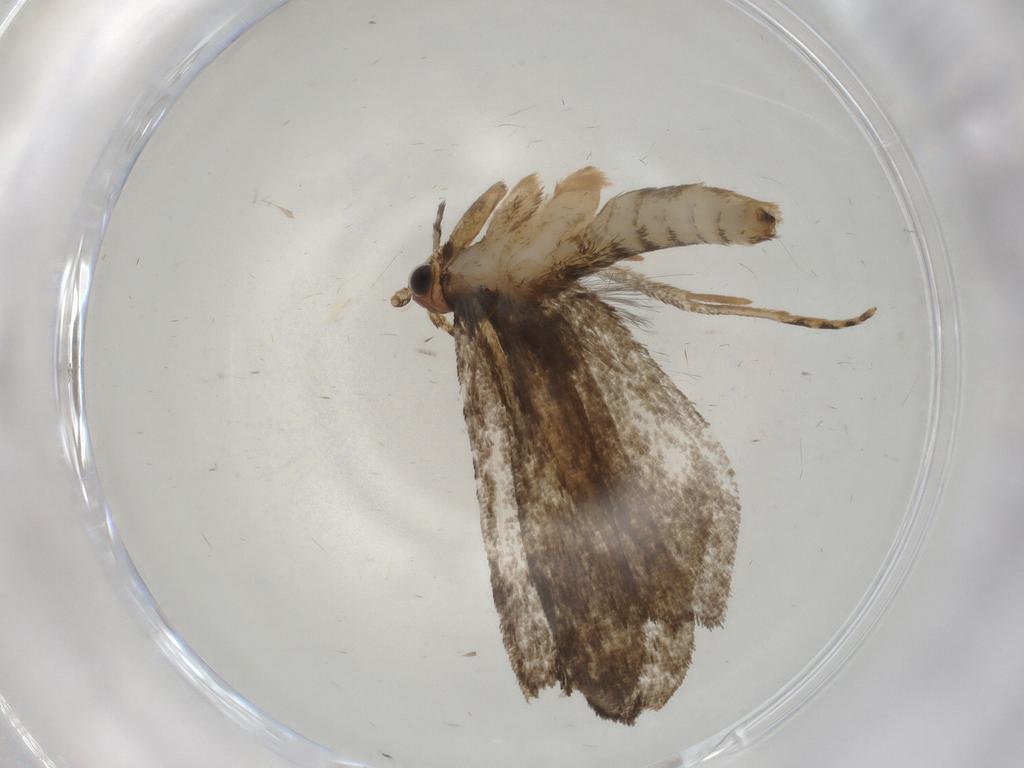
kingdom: Animalia
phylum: Arthropoda
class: Insecta
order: Lepidoptera
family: Tineidae
